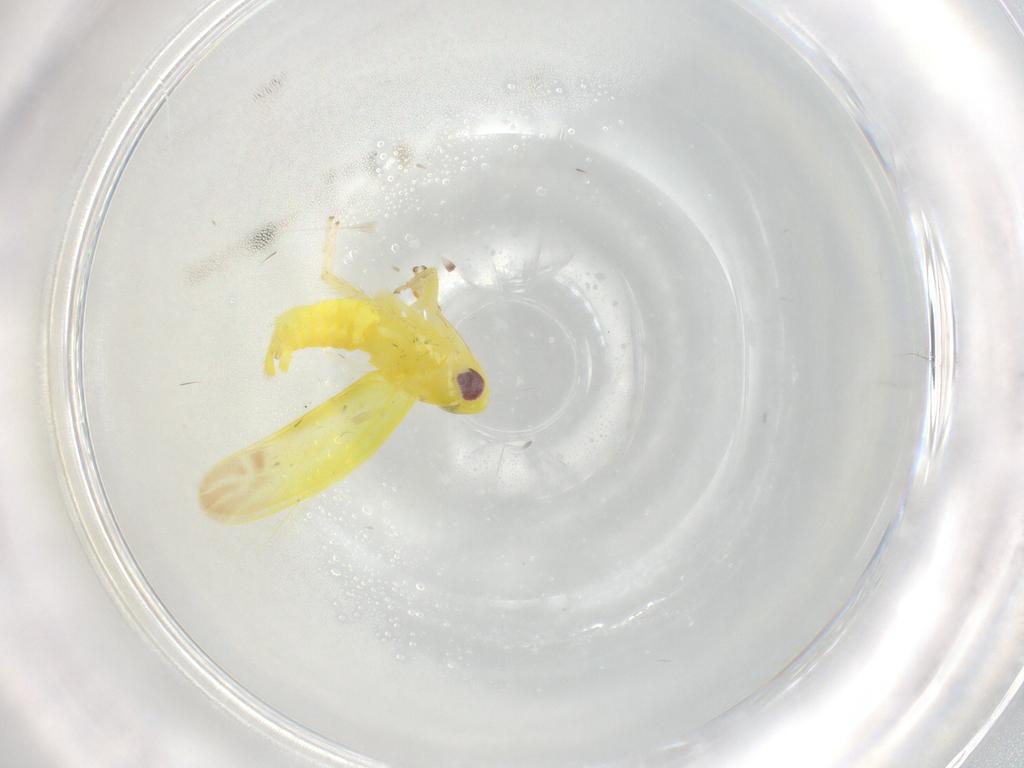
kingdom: Animalia
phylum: Arthropoda
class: Insecta
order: Hemiptera
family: Cicadellidae
